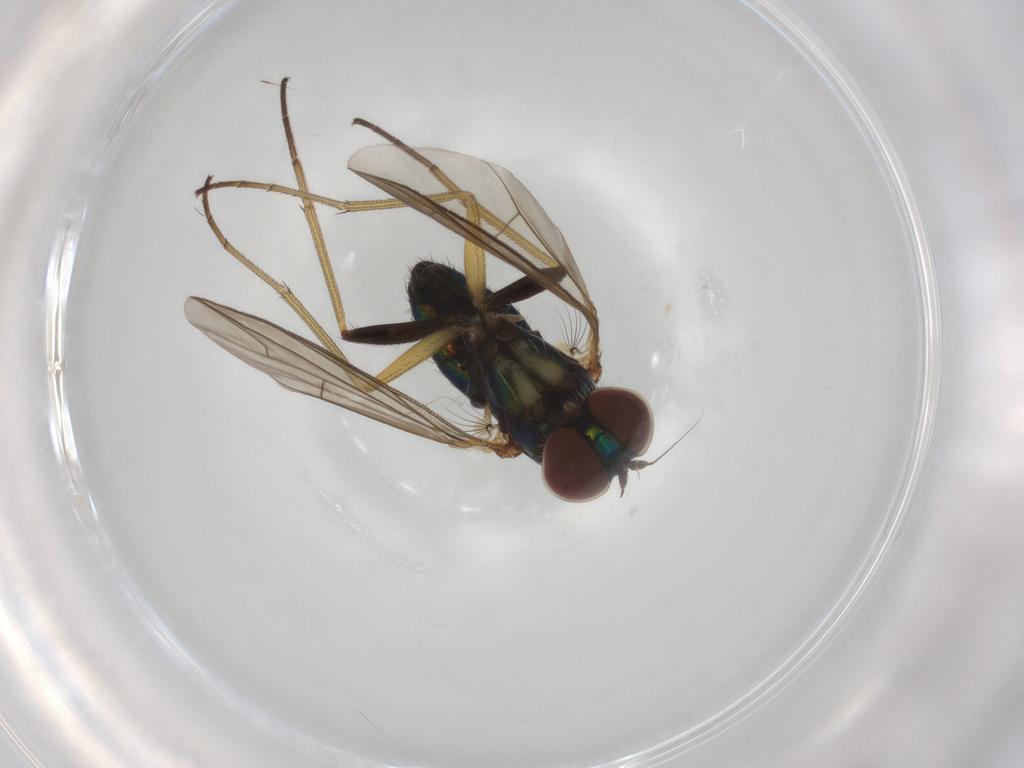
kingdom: Animalia
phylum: Arthropoda
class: Insecta
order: Diptera
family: Dolichopodidae
